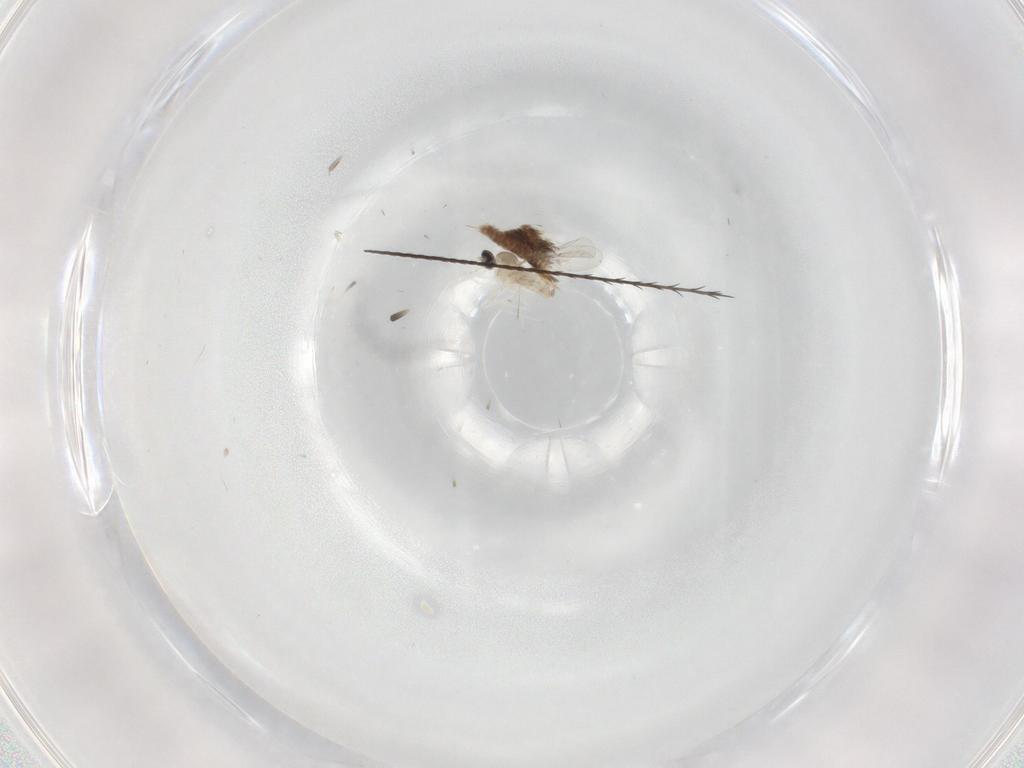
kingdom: Animalia
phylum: Arthropoda
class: Insecta
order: Diptera
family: Cecidomyiidae
